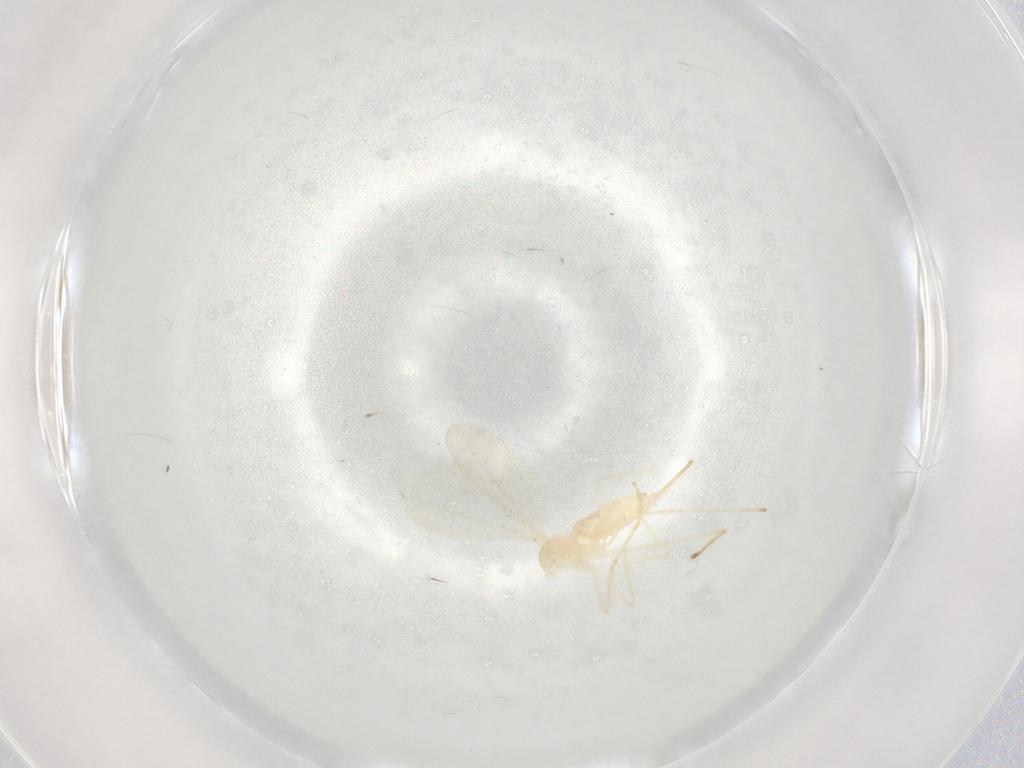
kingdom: Animalia
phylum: Arthropoda
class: Insecta
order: Diptera
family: Cecidomyiidae
